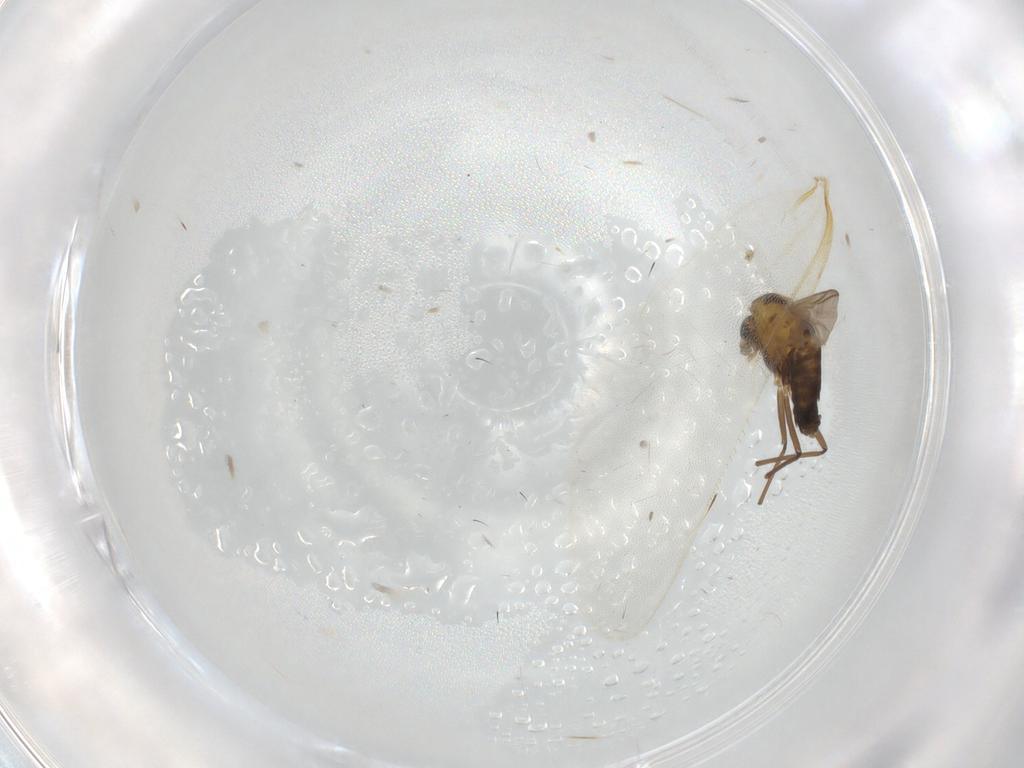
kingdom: Animalia
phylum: Arthropoda
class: Insecta
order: Diptera
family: Chironomidae
